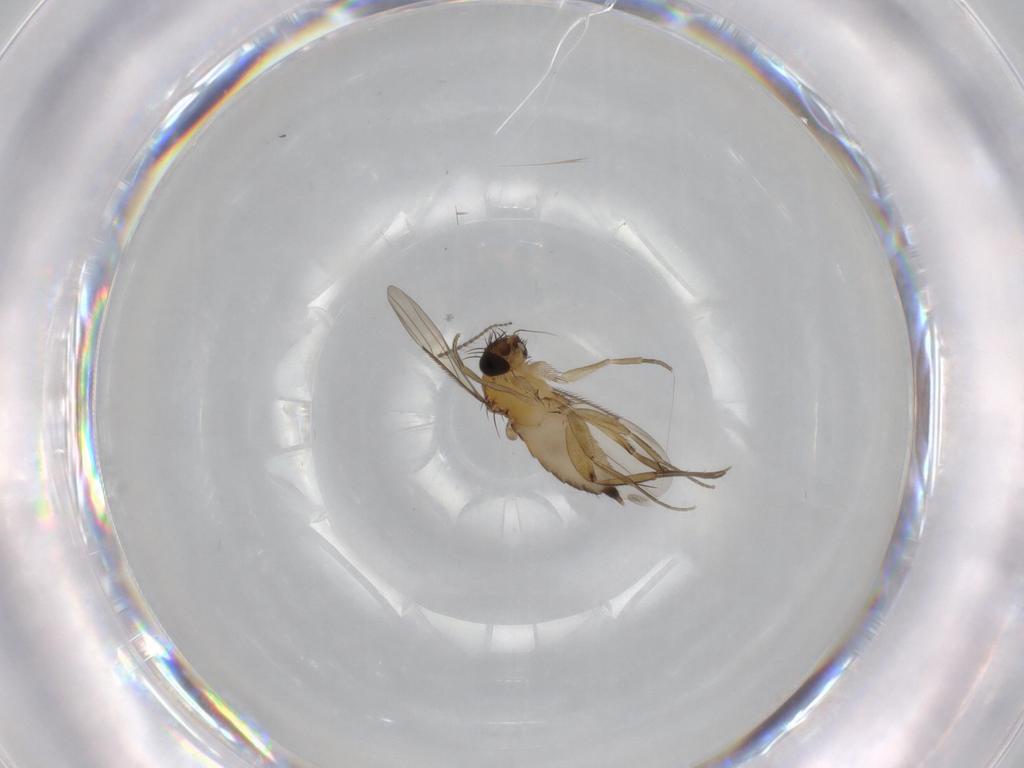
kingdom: Animalia
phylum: Arthropoda
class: Insecta
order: Diptera
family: Phoridae
